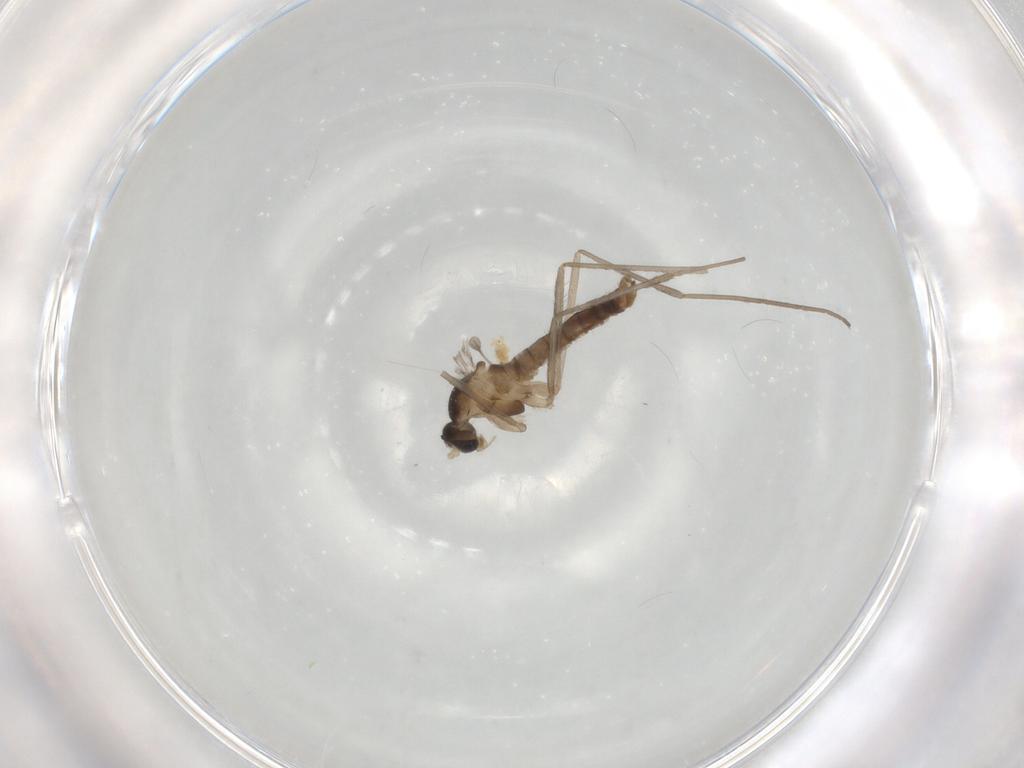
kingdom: Animalia
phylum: Arthropoda
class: Insecta
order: Diptera
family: Cecidomyiidae
